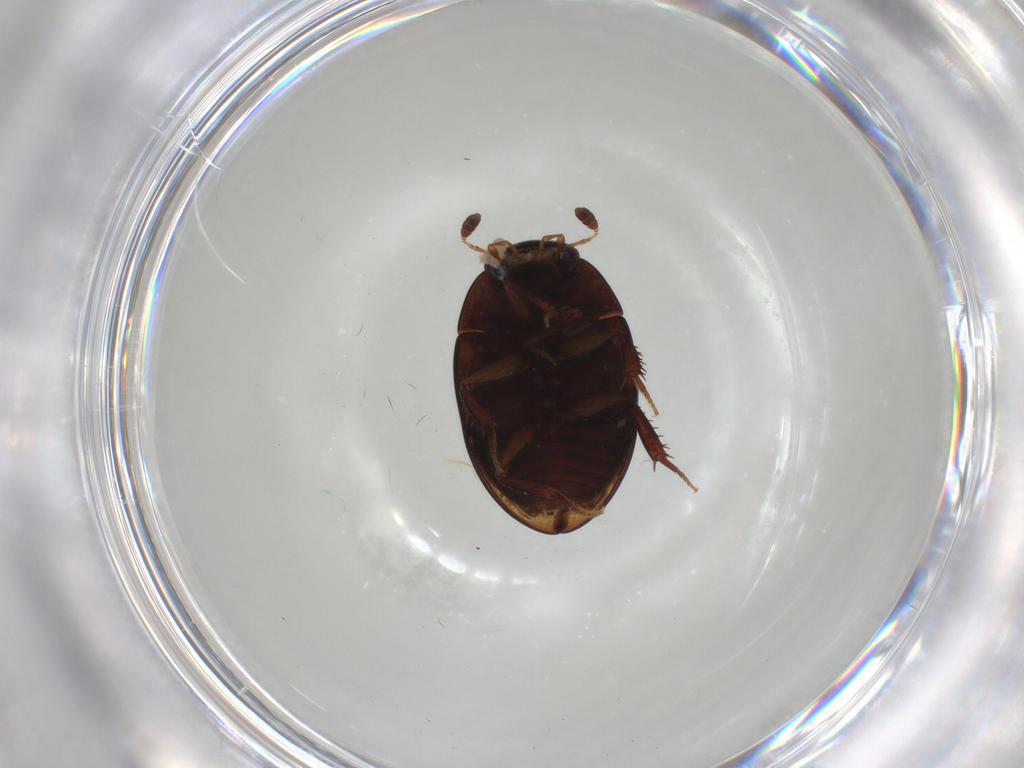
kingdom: Animalia
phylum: Arthropoda
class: Insecta
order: Coleoptera
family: Hydrophilidae
